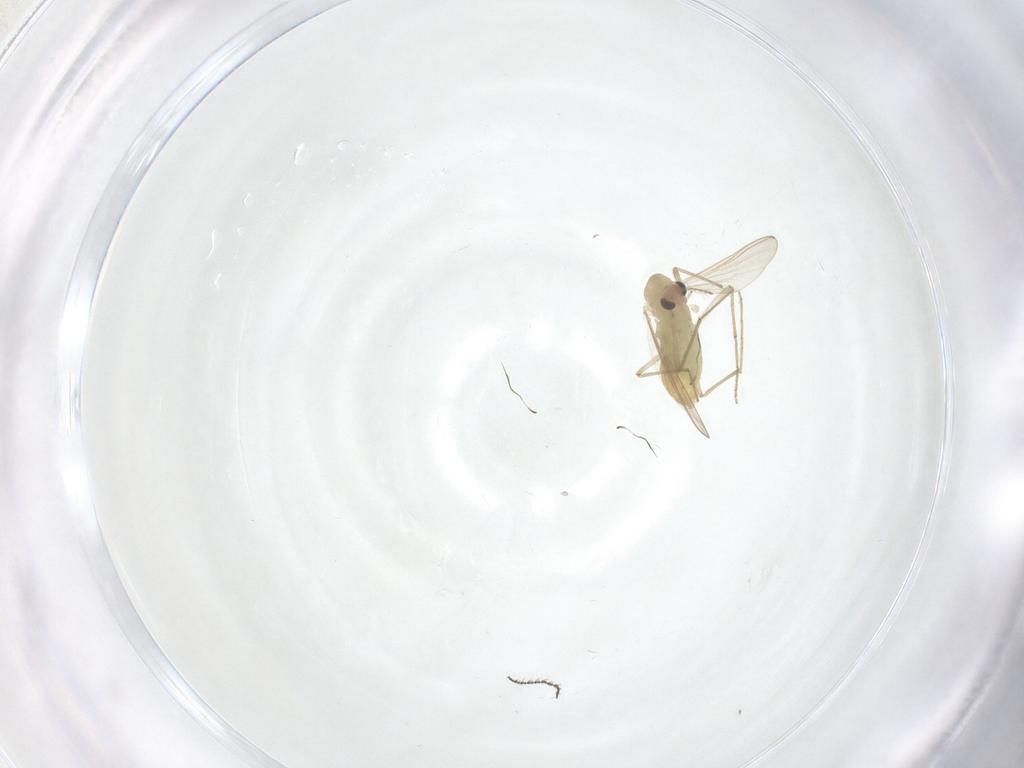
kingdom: Animalia
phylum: Arthropoda
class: Insecta
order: Diptera
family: Chironomidae
